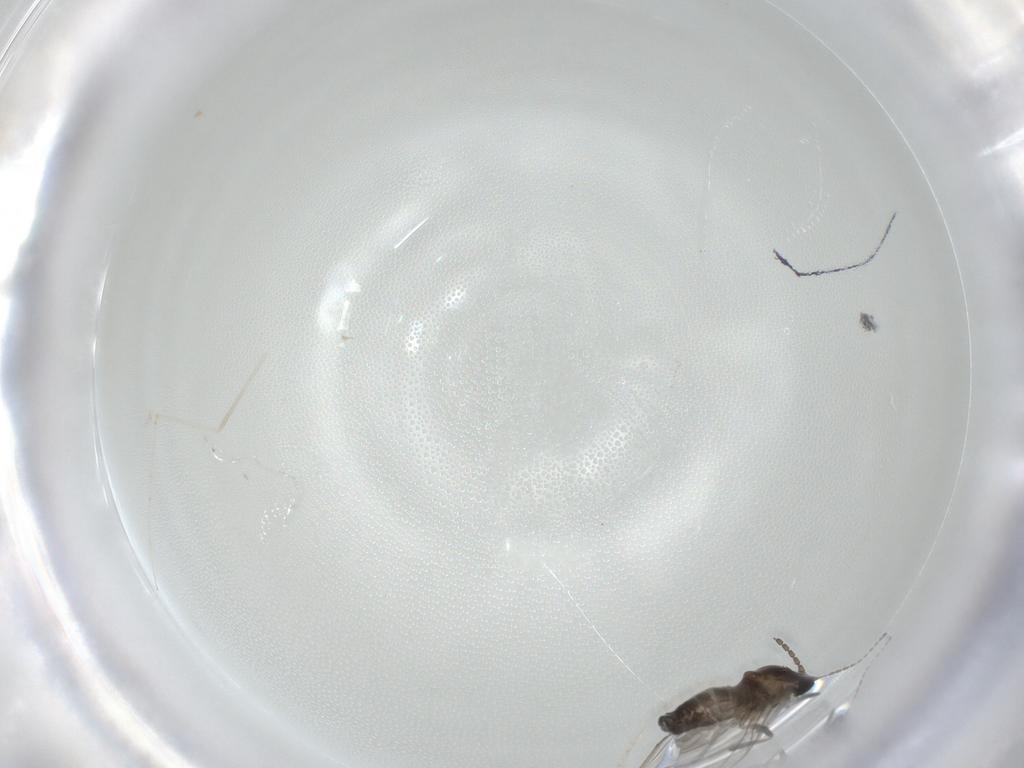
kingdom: Animalia
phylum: Arthropoda
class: Insecta
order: Diptera
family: Cecidomyiidae
